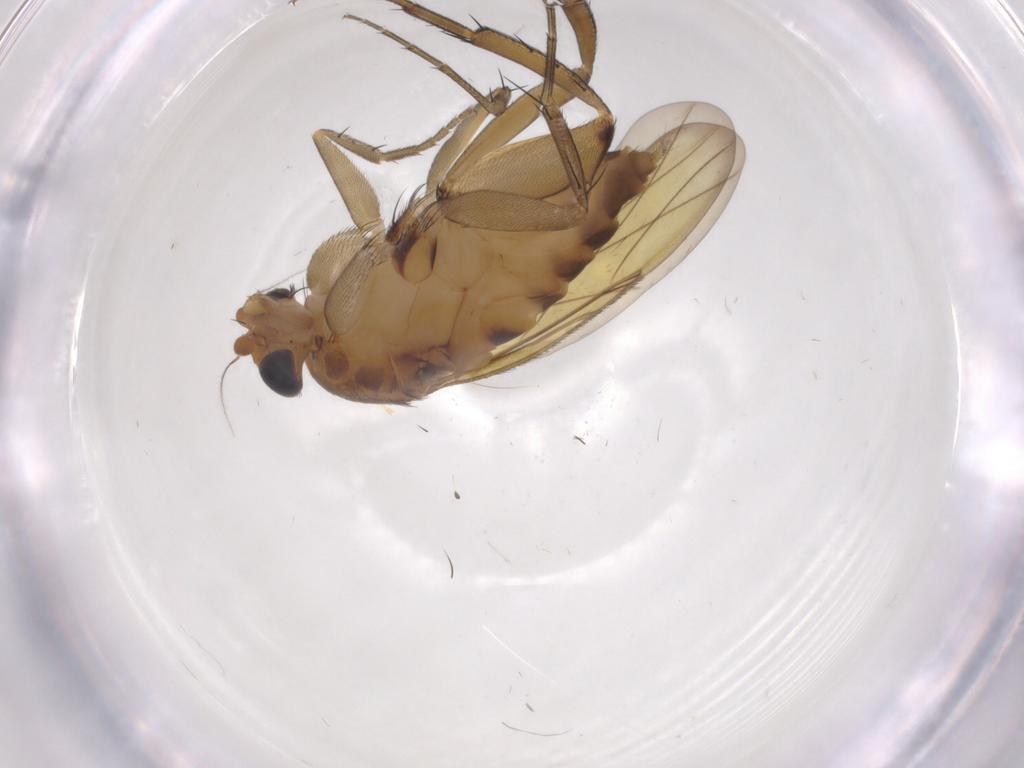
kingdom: Animalia
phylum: Arthropoda
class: Insecta
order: Diptera
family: Phoridae
